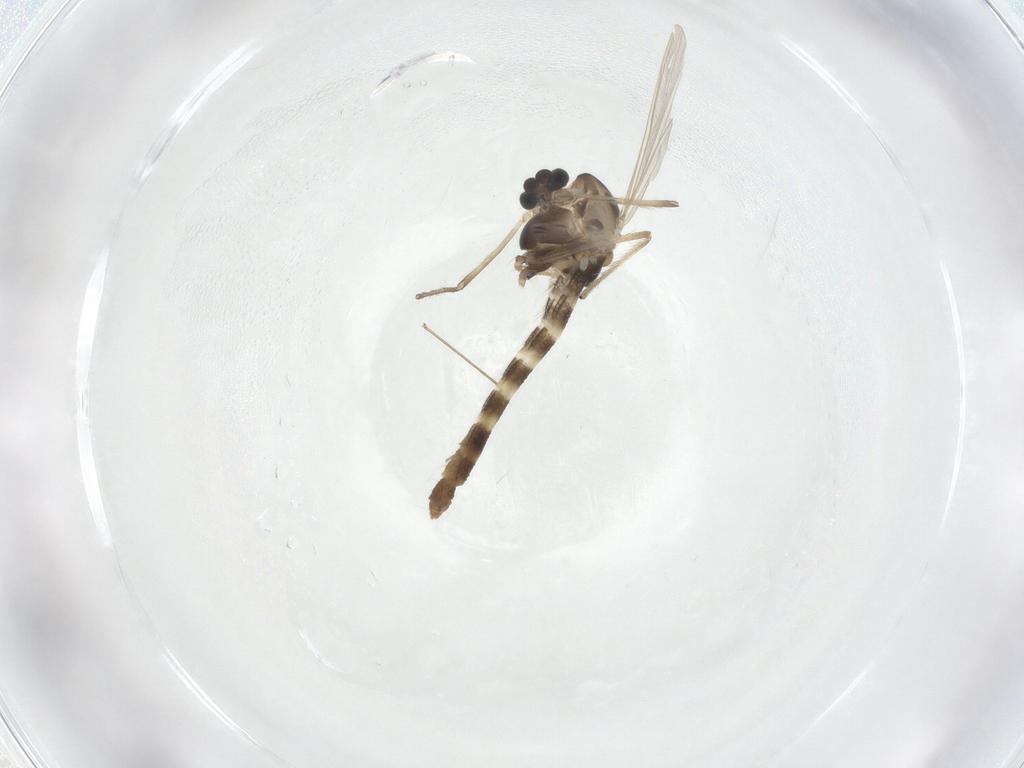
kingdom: Animalia
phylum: Arthropoda
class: Insecta
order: Diptera
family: Chironomidae
